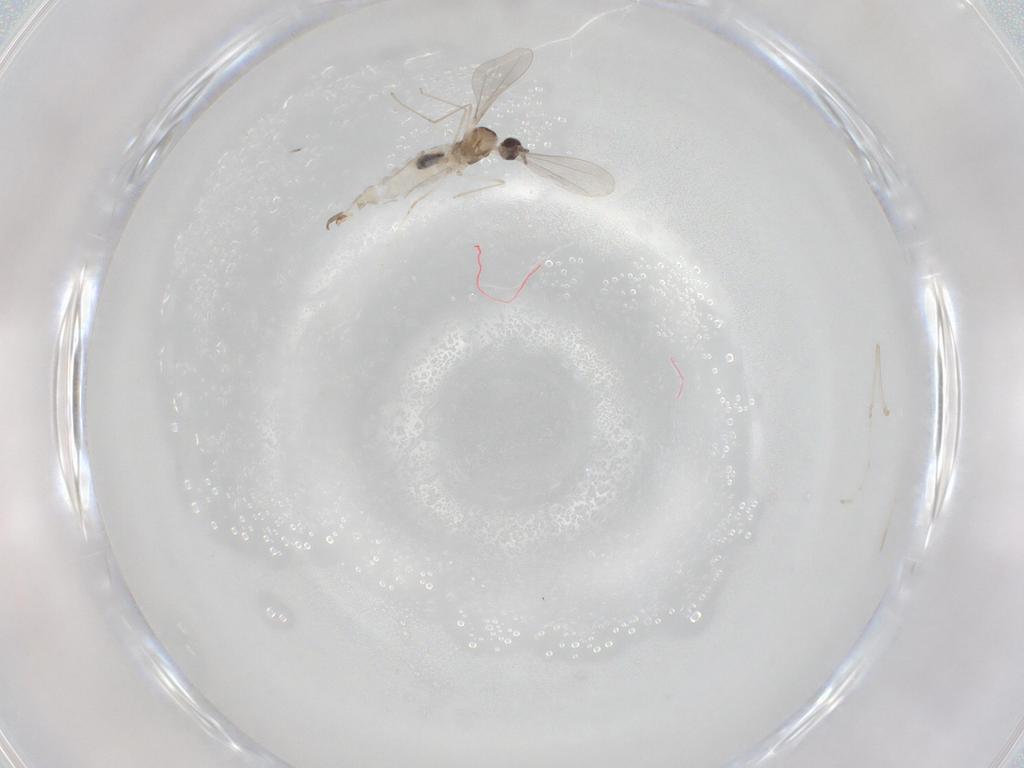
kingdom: Animalia
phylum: Arthropoda
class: Insecta
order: Diptera
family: Cecidomyiidae
